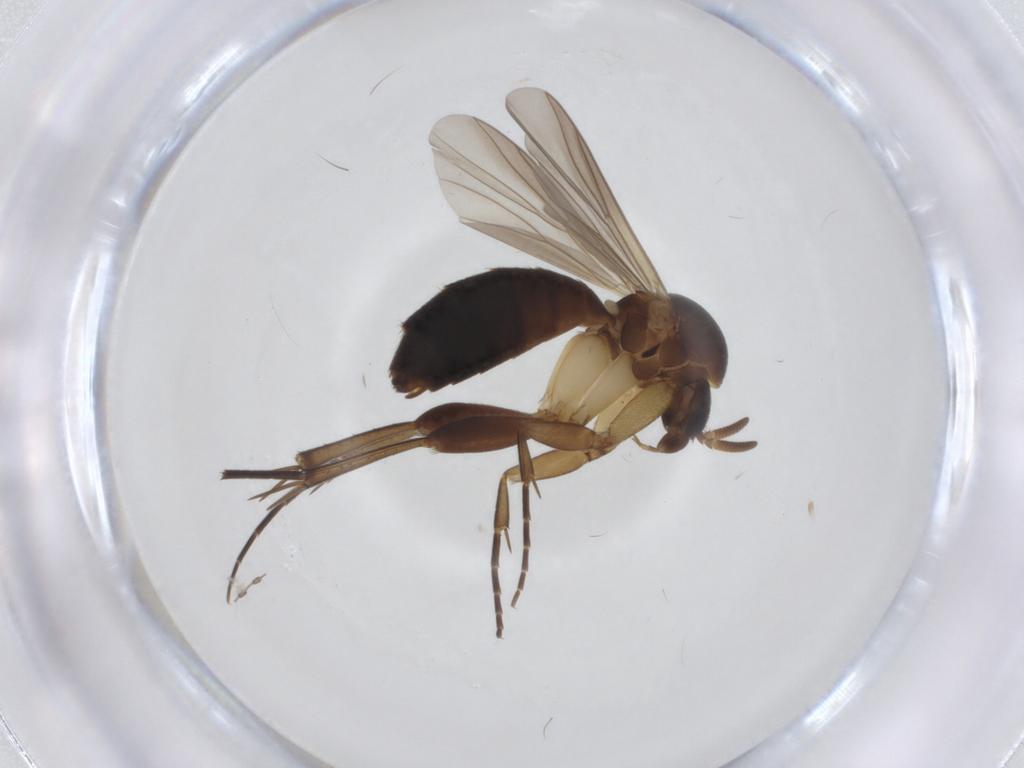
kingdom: Animalia
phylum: Arthropoda
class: Insecta
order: Diptera
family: Mycetophilidae
